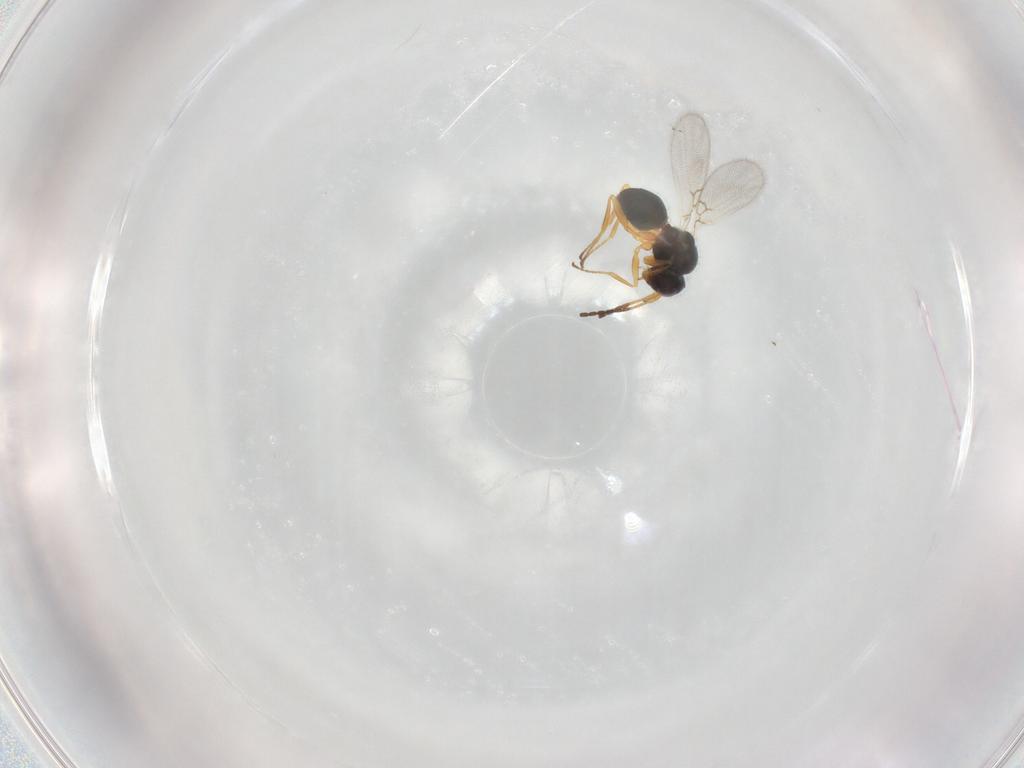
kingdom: Animalia
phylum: Arthropoda
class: Insecta
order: Hymenoptera
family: Figitidae
